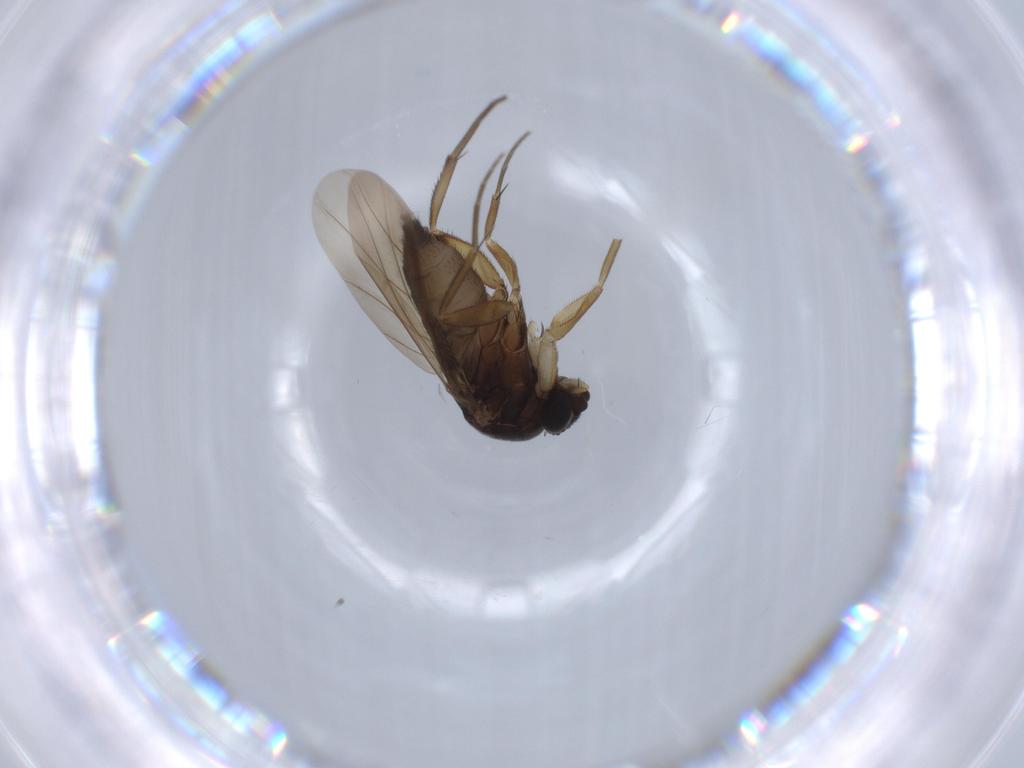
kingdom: Animalia
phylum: Arthropoda
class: Insecta
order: Diptera
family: Phoridae
